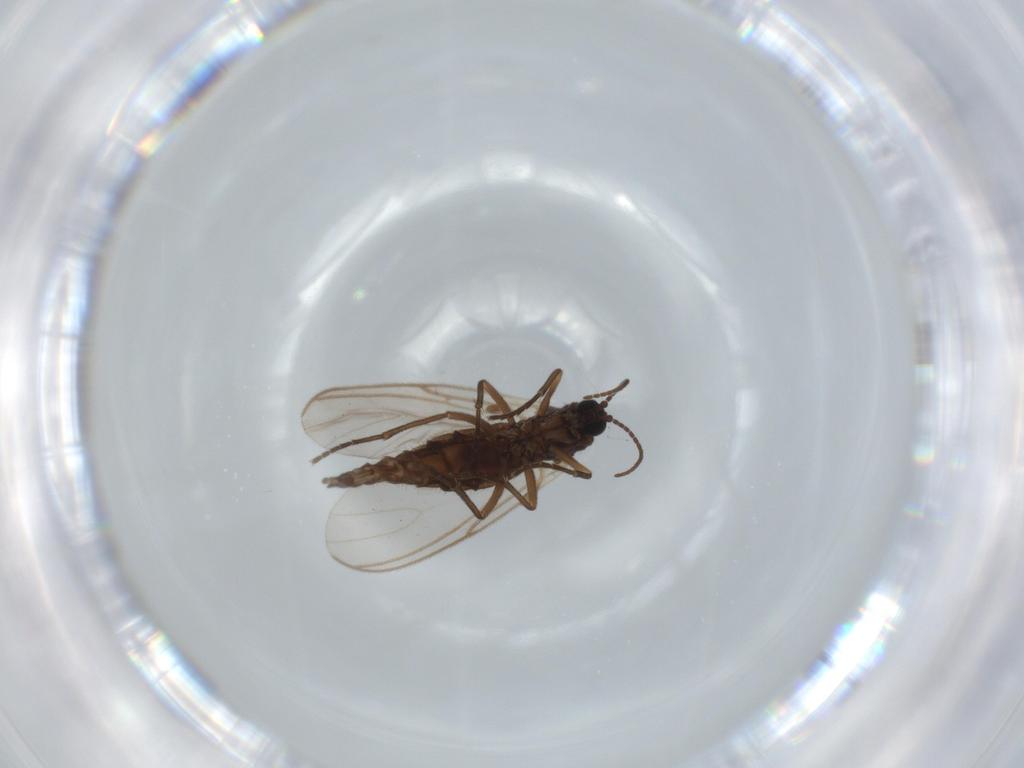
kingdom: Animalia
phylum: Arthropoda
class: Insecta
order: Diptera
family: Sciaridae
